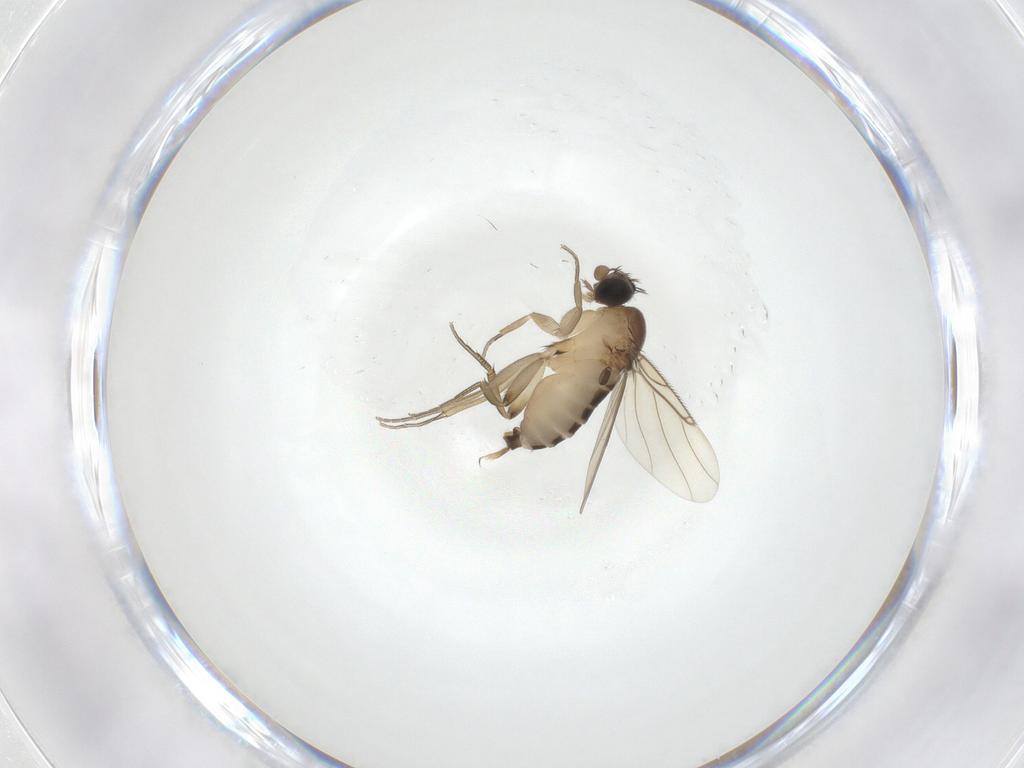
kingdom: Animalia
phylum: Arthropoda
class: Insecta
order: Diptera
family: Phoridae
